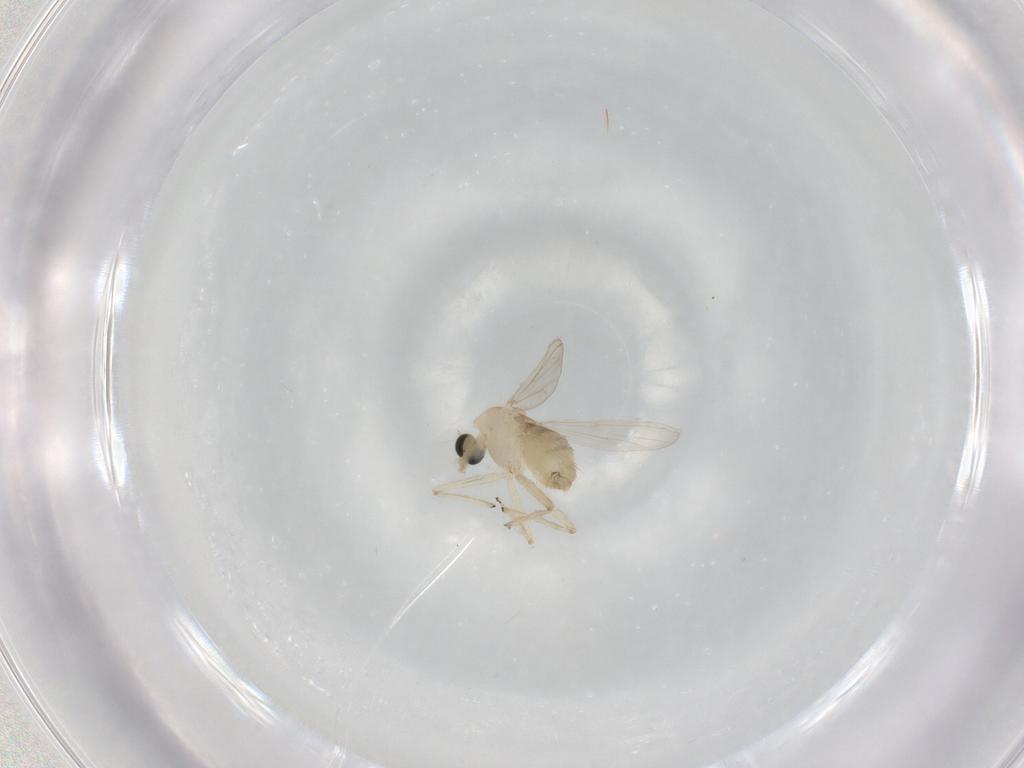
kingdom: Animalia
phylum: Arthropoda
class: Insecta
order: Diptera
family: Chironomidae
